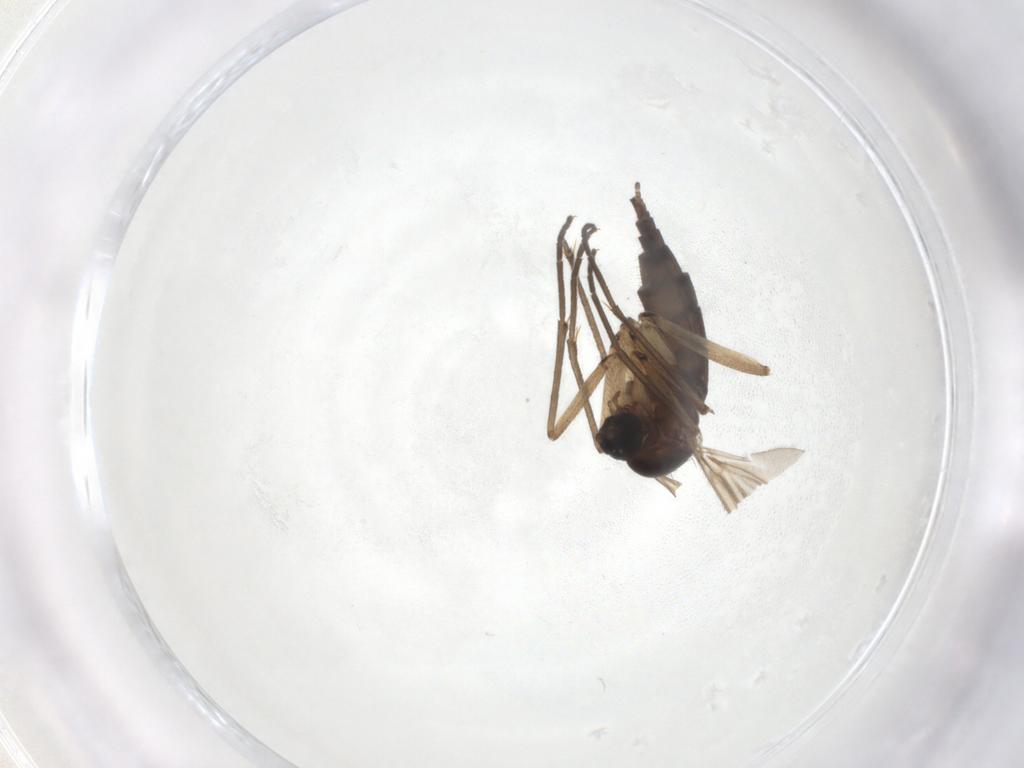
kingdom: Animalia
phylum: Arthropoda
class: Insecta
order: Diptera
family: Sciaridae
